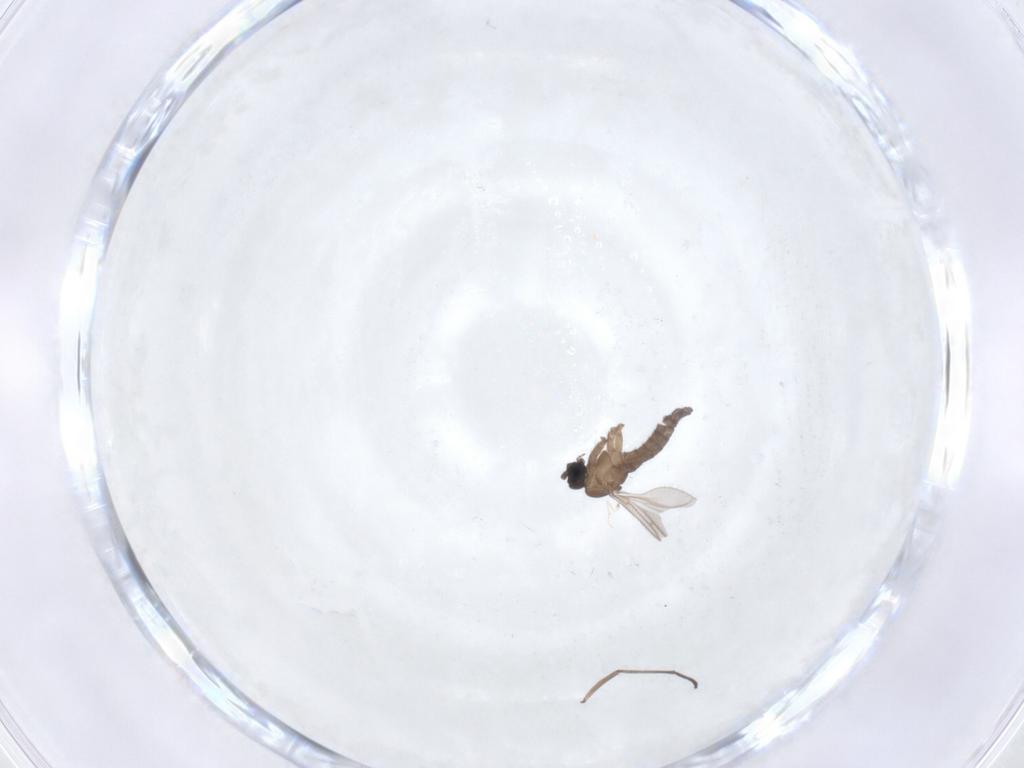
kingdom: Animalia
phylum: Arthropoda
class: Insecta
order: Diptera
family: Sciaridae
